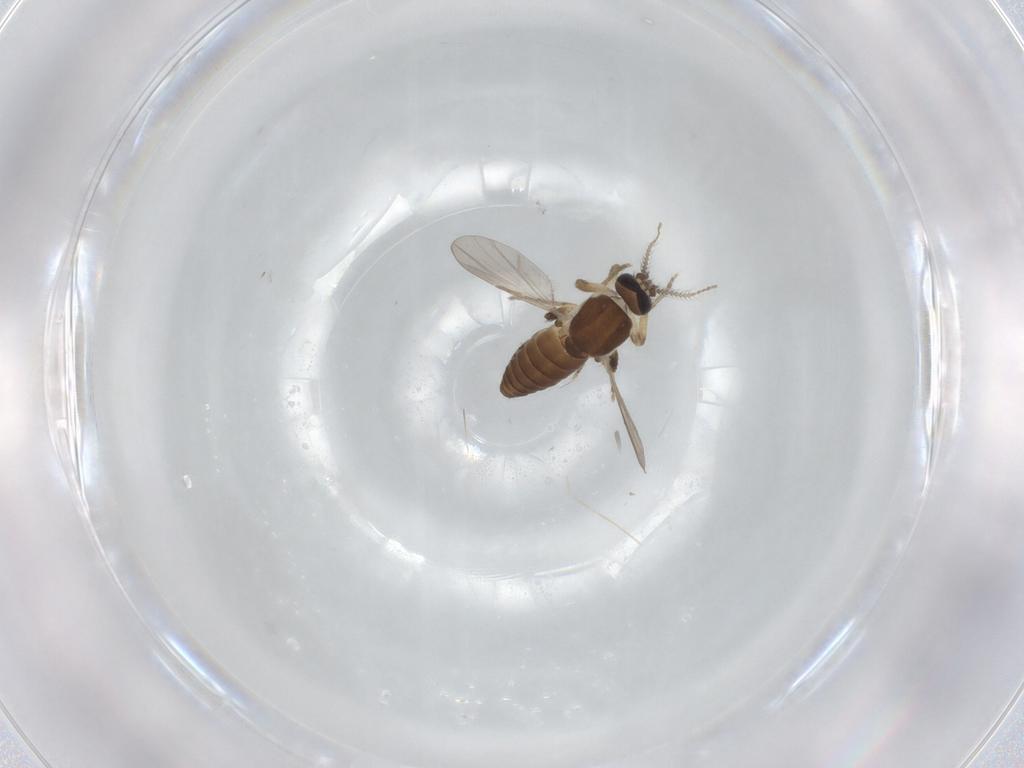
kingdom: Animalia
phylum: Arthropoda
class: Insecta
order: Diptera
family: Ceratopogonidae
